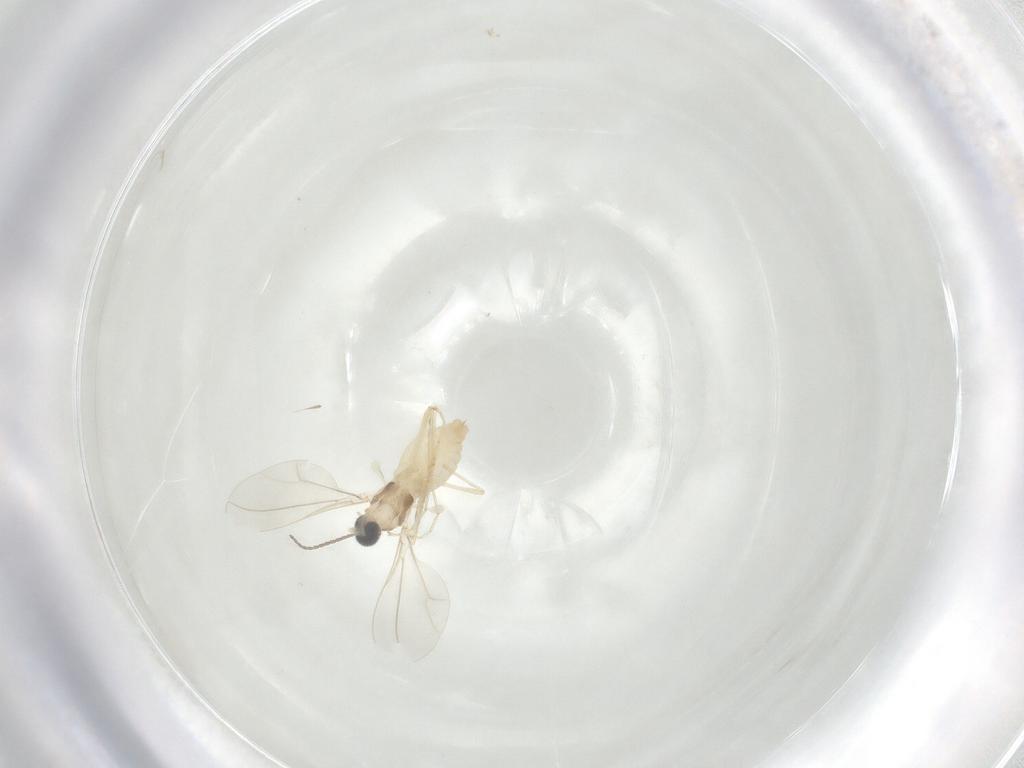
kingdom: Animalia
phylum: Arthropoda
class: Insecta
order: Diptera
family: Cecidomyiidae
